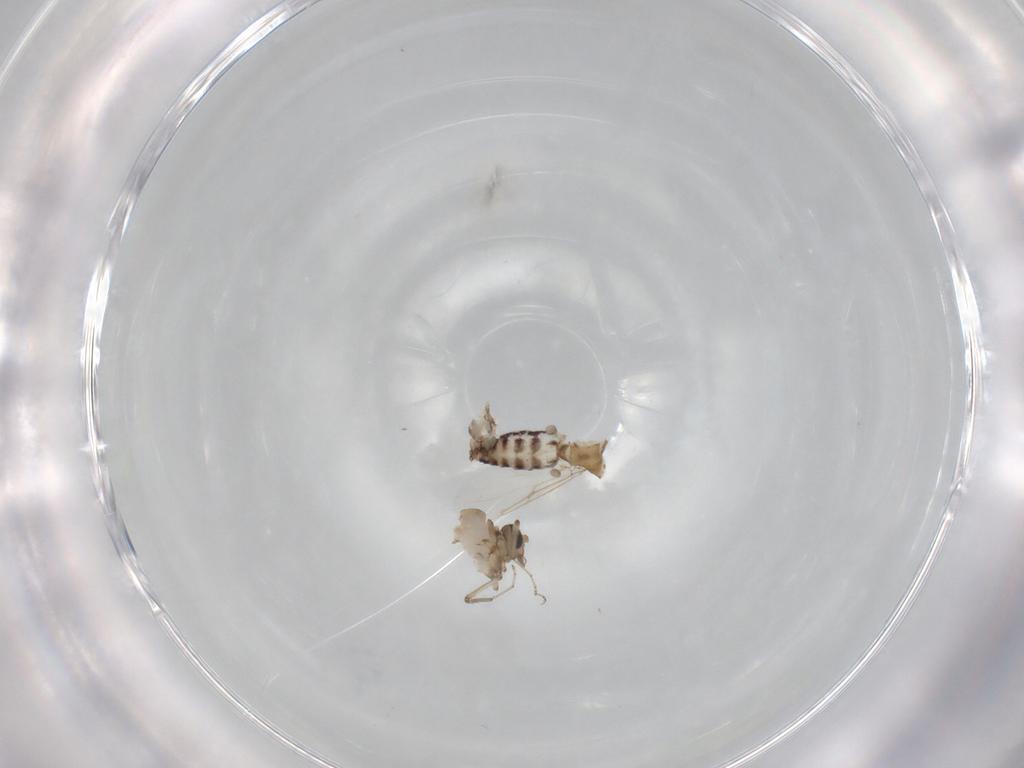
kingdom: Animalia
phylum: Arthropoda
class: Insecta
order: Diptera
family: Ceratopogonidae
